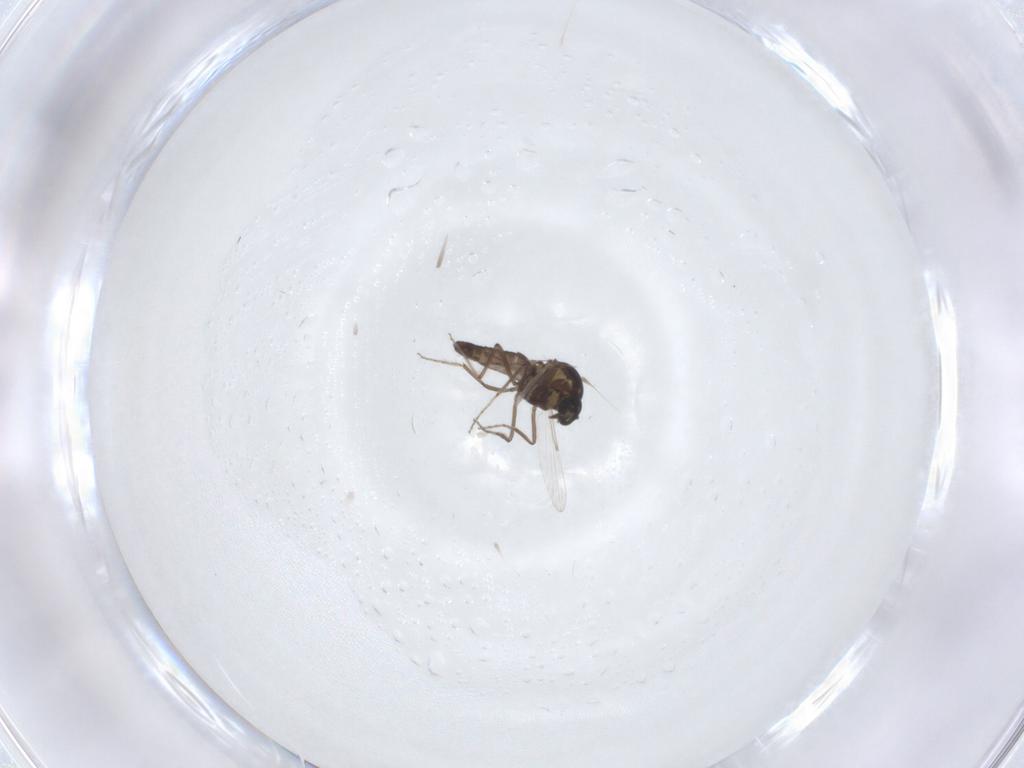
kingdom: Animalia
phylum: Arthropoda
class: Insecta
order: Diptera
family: Ceratopogonidae
